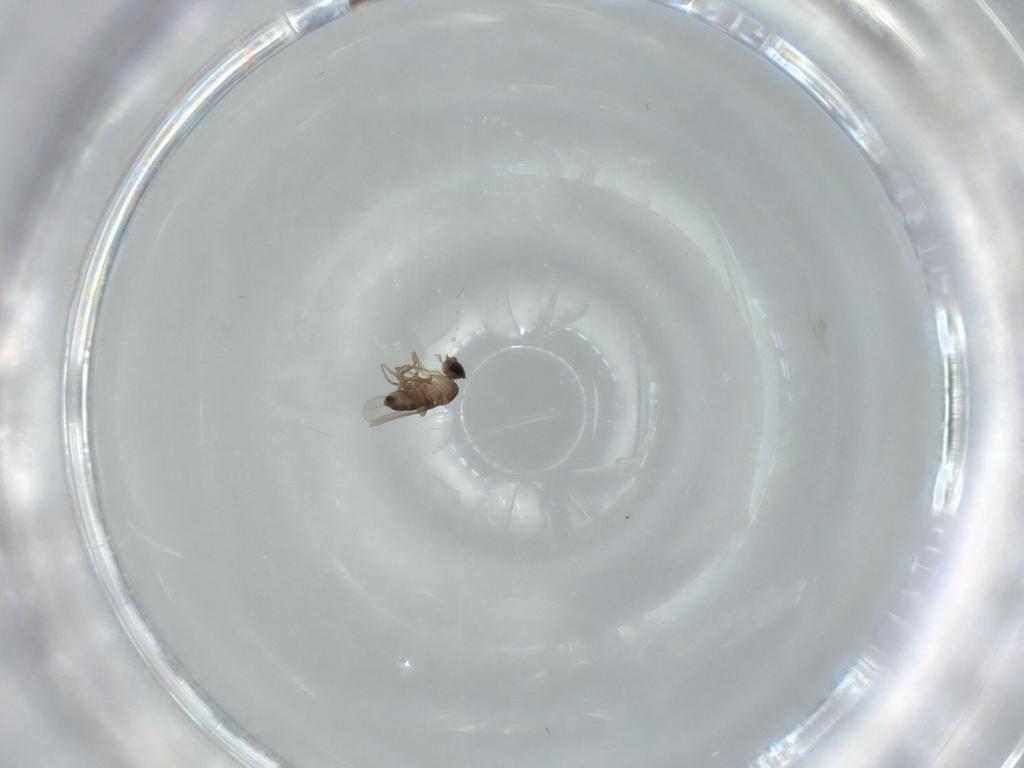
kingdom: Animalia
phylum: Arthropoda
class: Insecta
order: Diptera
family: Phoridae
